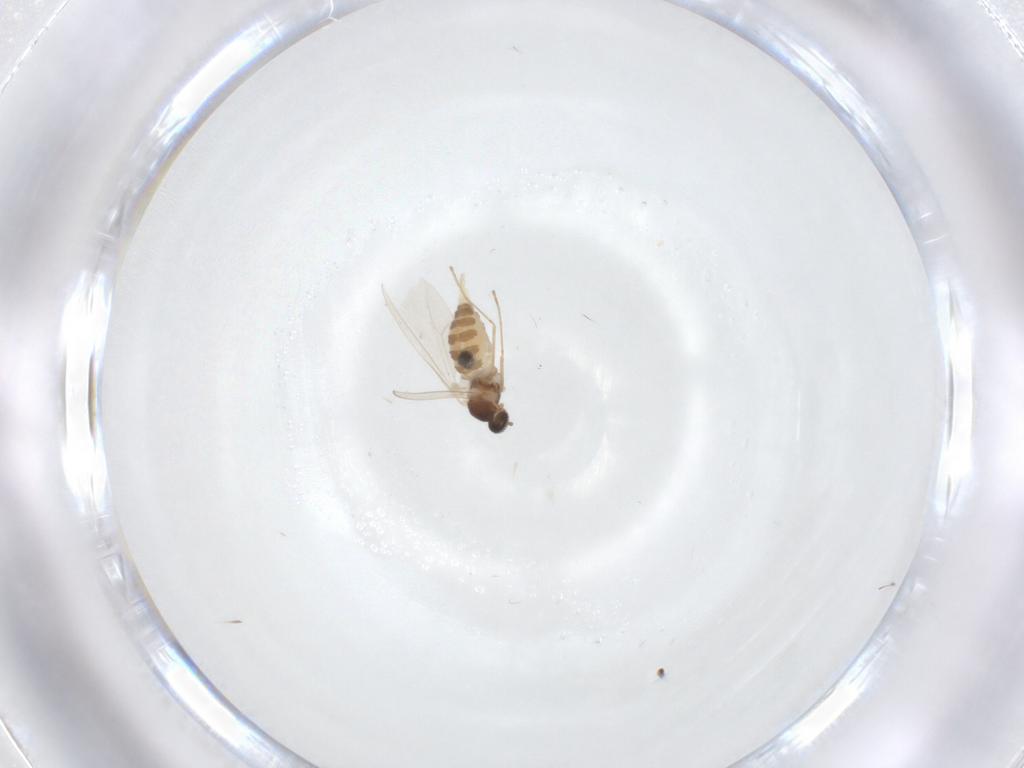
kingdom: Animalia
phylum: Arthropoda
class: Insecta
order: Diptera
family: Cecidomyiidae
